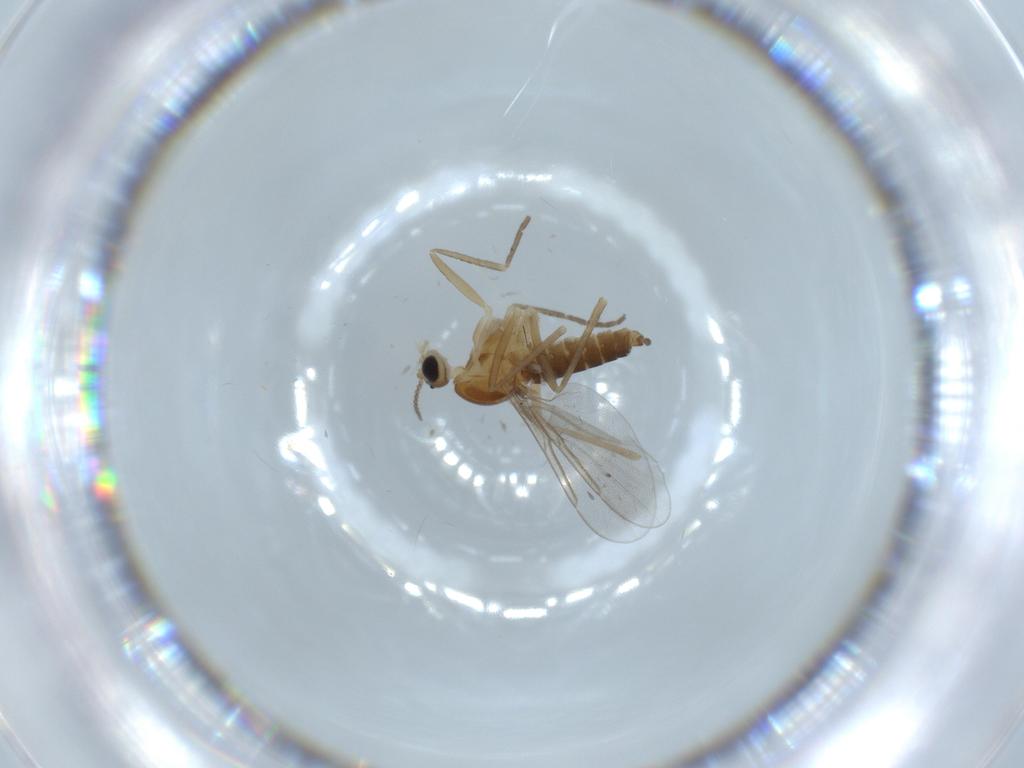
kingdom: Animalia
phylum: Arthropoda
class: Insecta
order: Diptera
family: Cecidomyiidae
